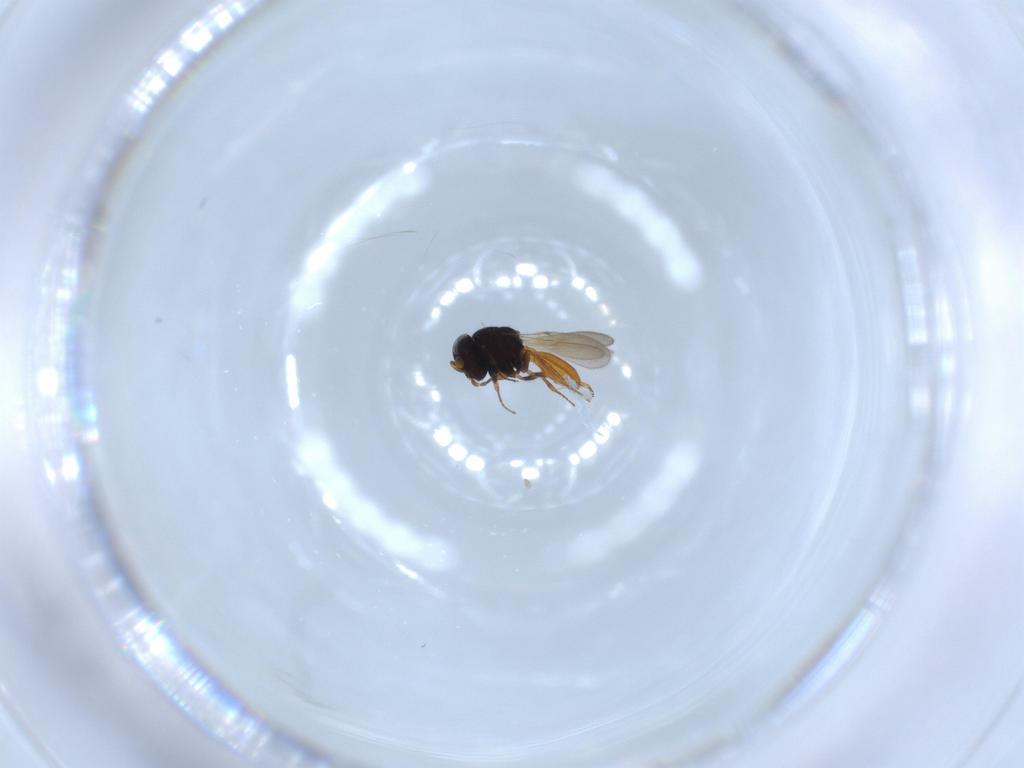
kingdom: Animalia
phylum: Arthropoda
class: Insecta
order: Hymenoptera
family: Scelionidae
